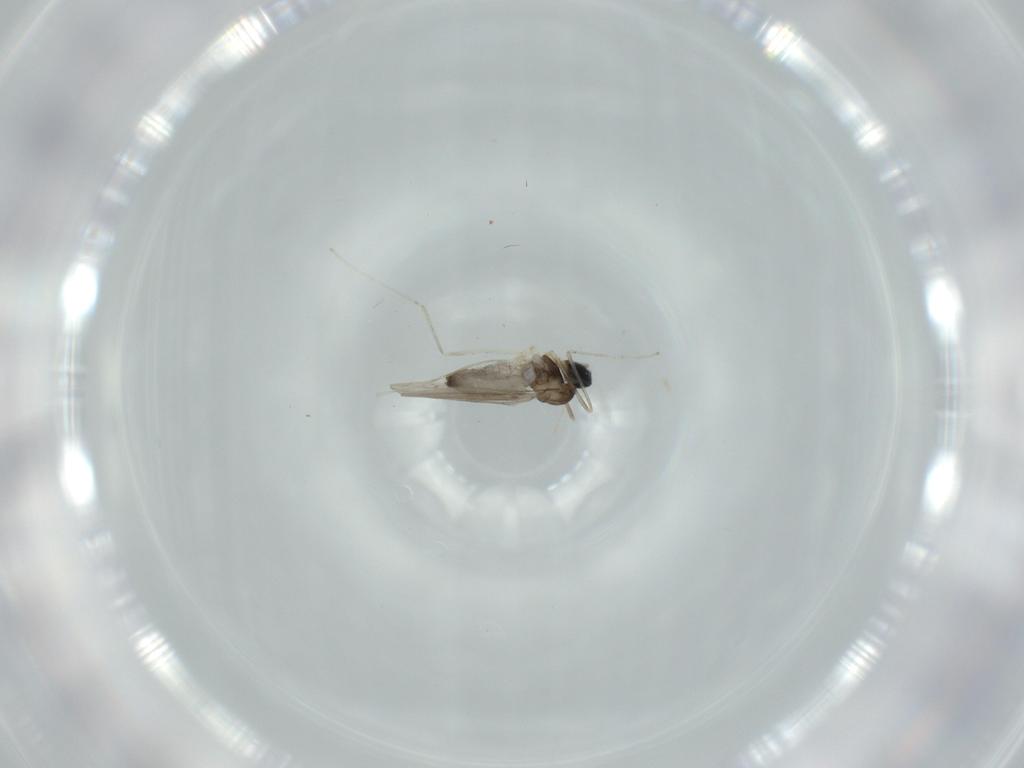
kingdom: Animalia
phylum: Arthropoda
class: Insecta
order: Diptera
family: Cecidomyiidae
